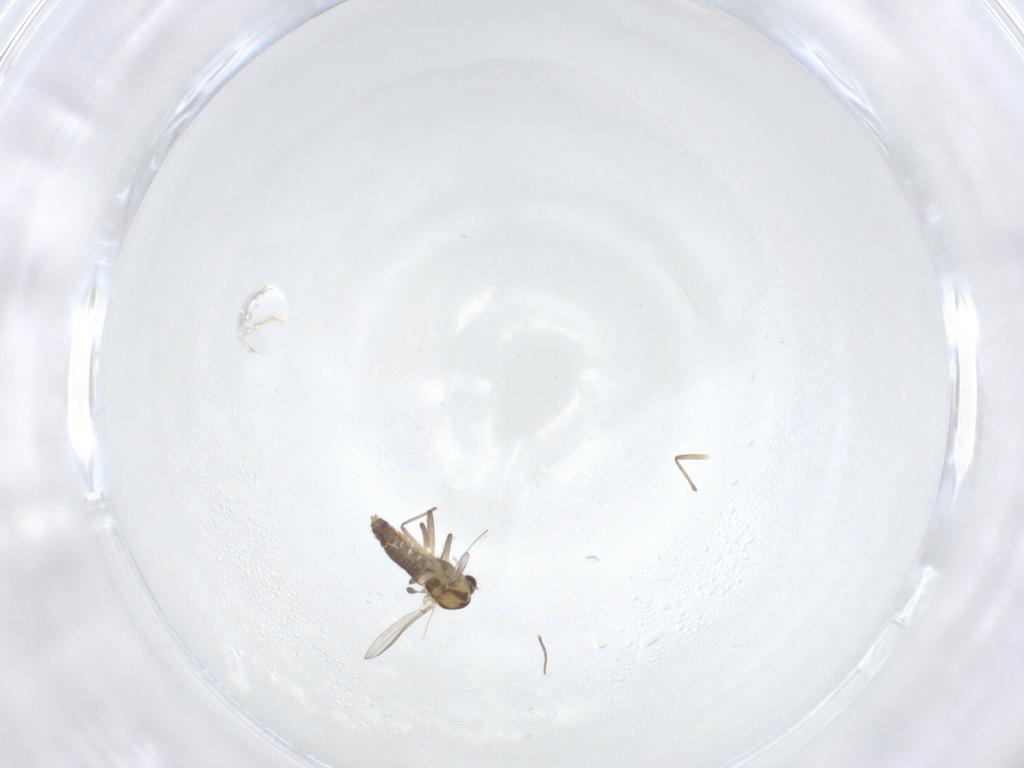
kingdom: Animalia
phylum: Arthropoda
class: Insecta
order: Diptera
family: Chironomidae
